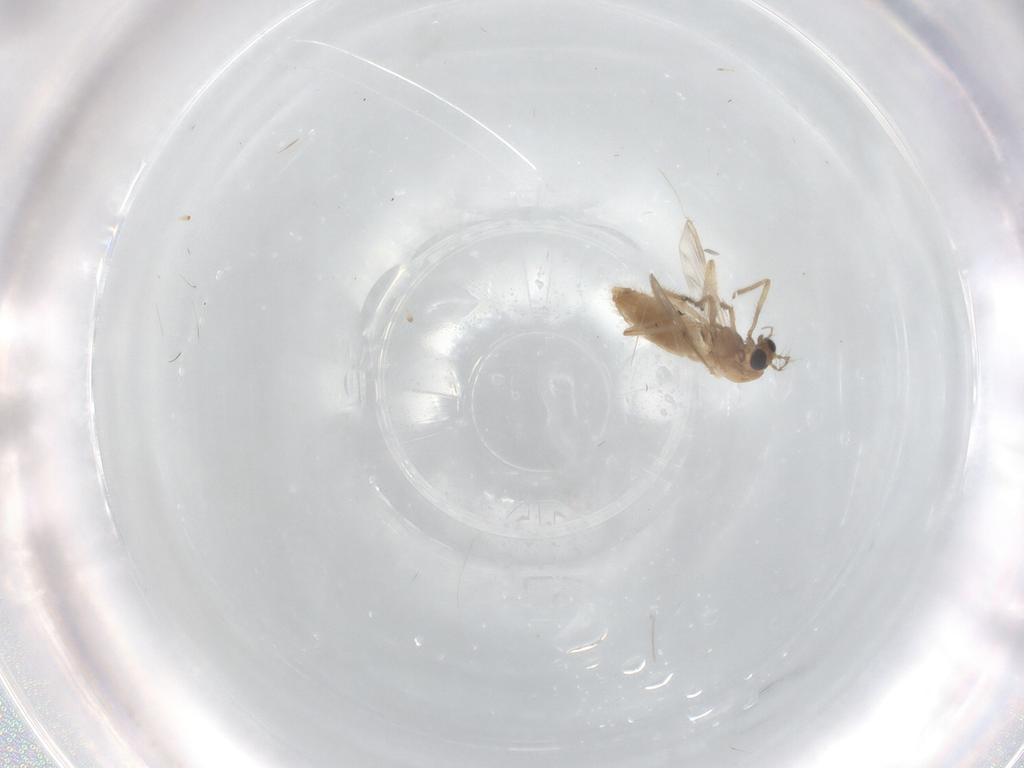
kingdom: Animalia
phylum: Arthropoda
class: Insecta
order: Diptera
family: Chironomidae
